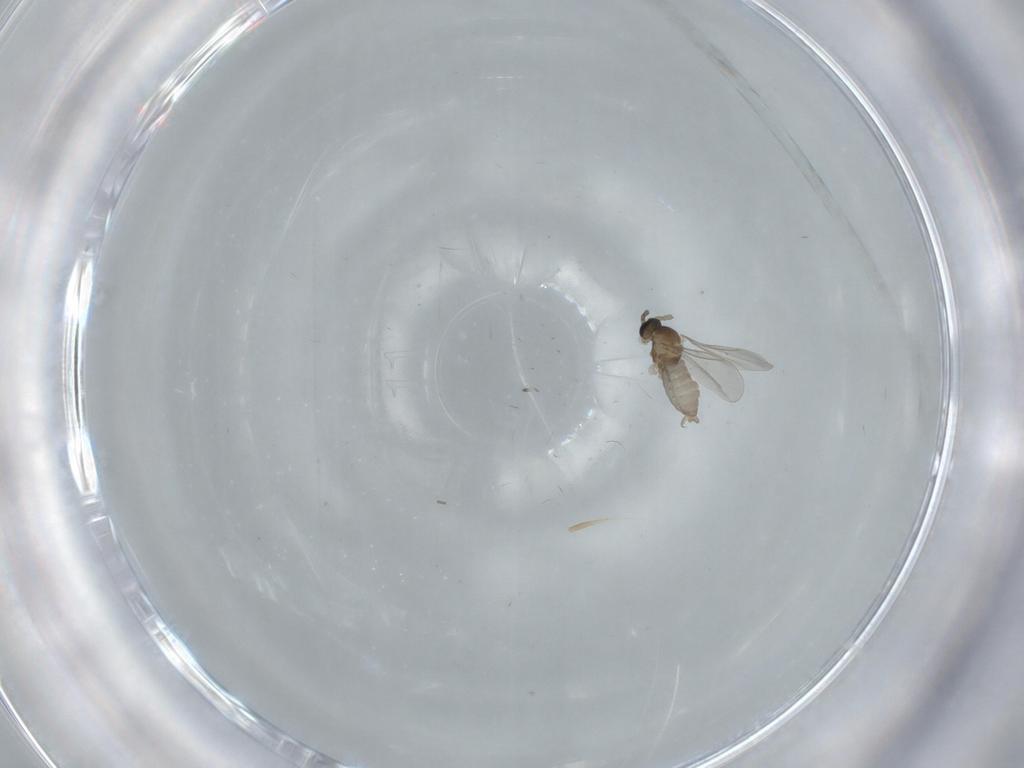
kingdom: Animalia
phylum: Arthropoda
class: Insecta
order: Diptera
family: Cecidomyiidae
